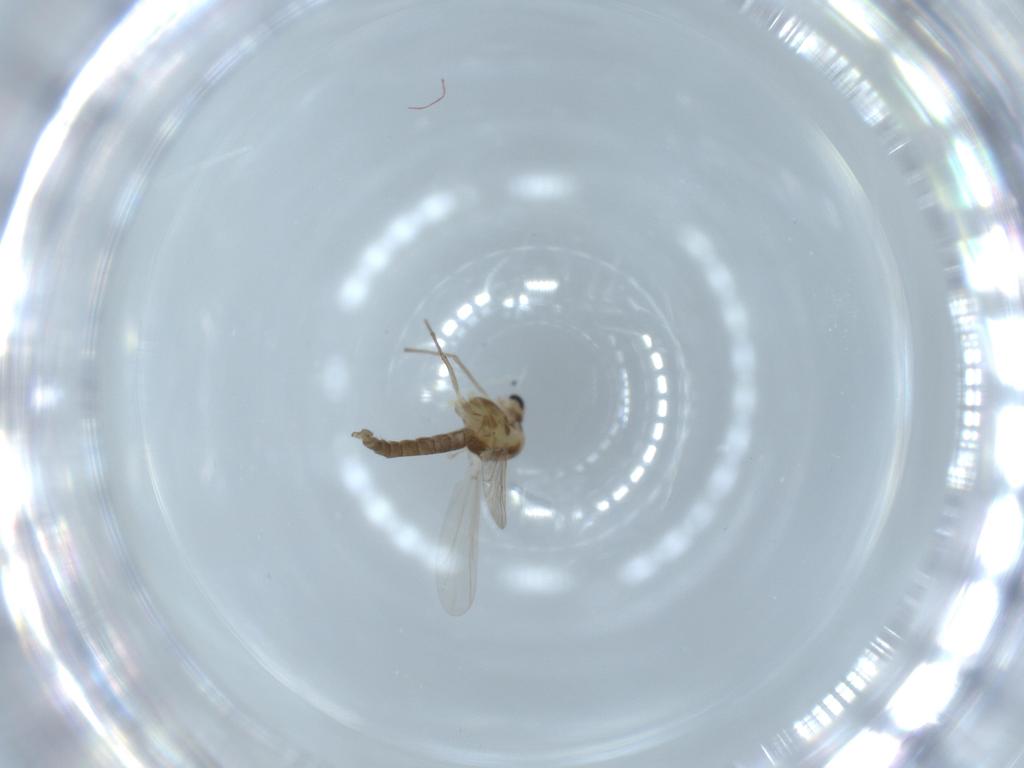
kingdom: Animalia
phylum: Arthropoda
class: Insecta
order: Diptera
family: Chironomidae
